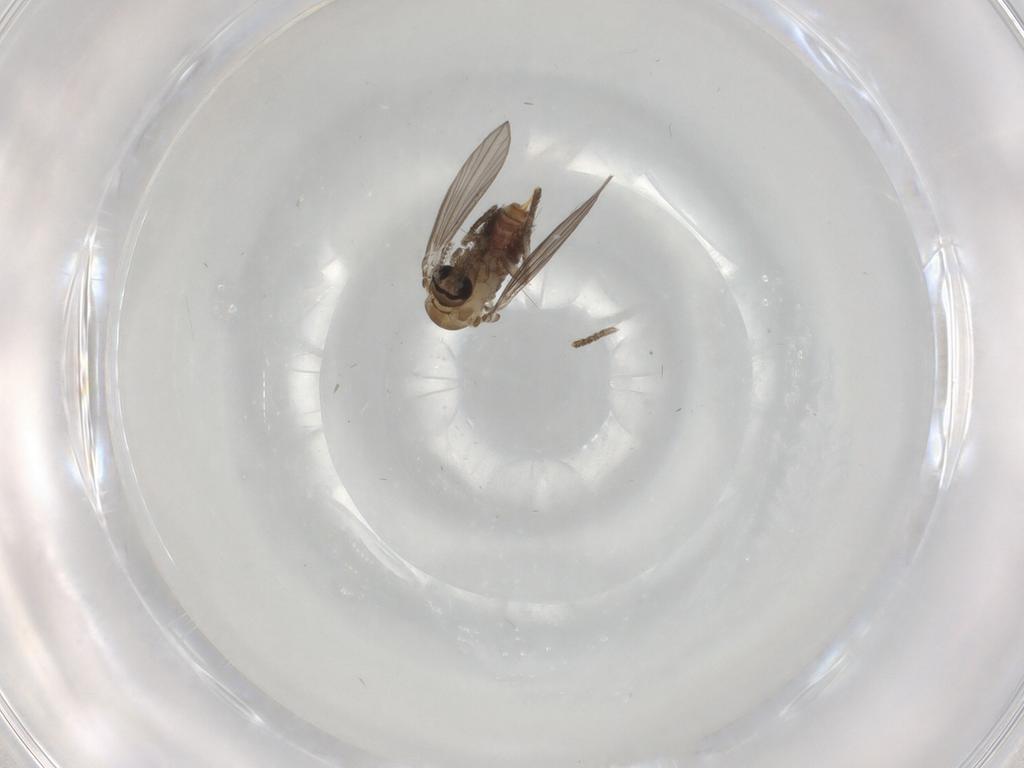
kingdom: Animalia
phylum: Arthropoda
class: Insecta
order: Diptera
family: Psychodidae
